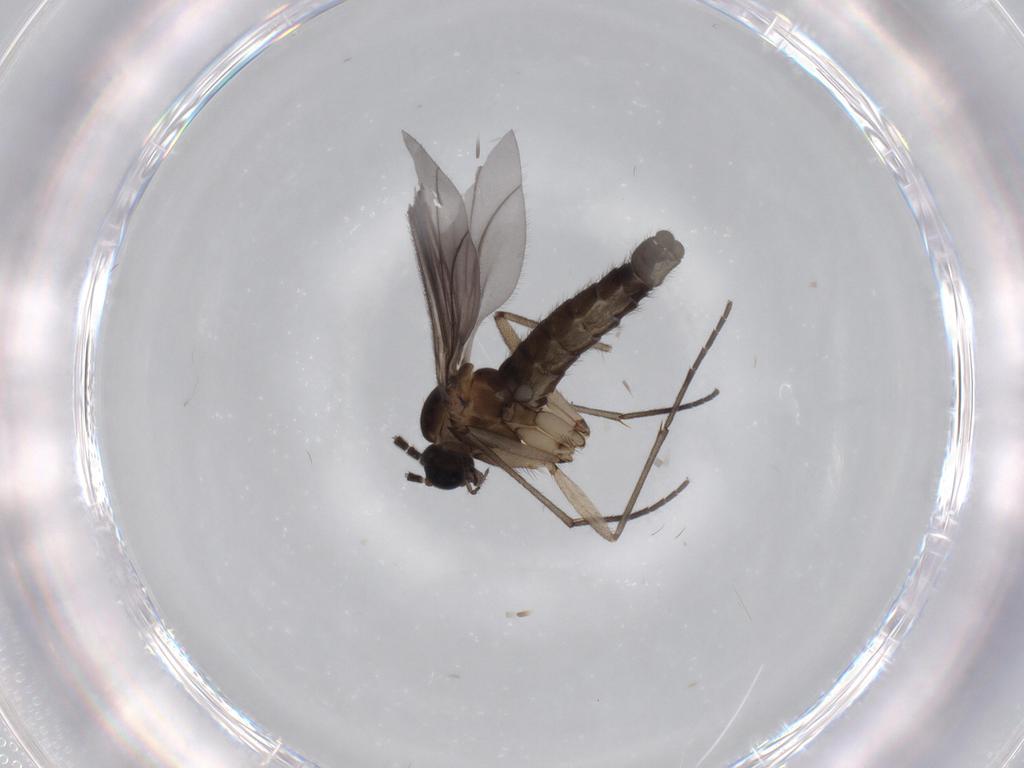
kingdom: Animalia
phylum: Arthropoda
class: Insecta
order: Diptera
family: Sciaridae
